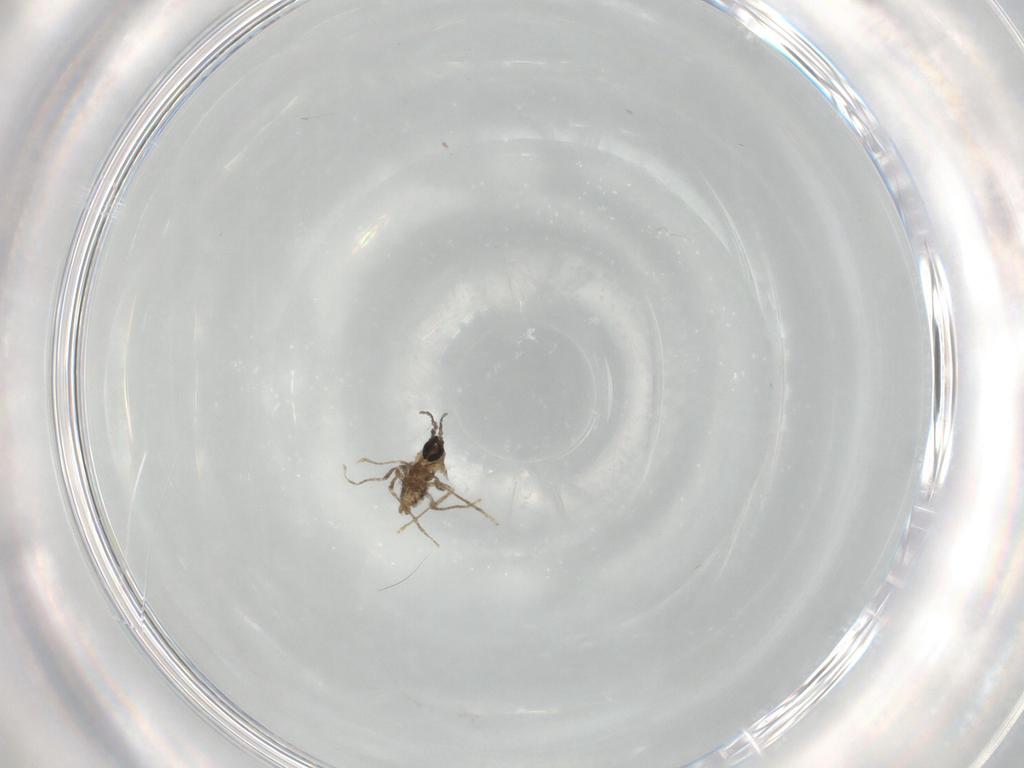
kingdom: Animalia
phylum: Arthropoda
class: Insecta
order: Diptera
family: Cecidomyiidae
